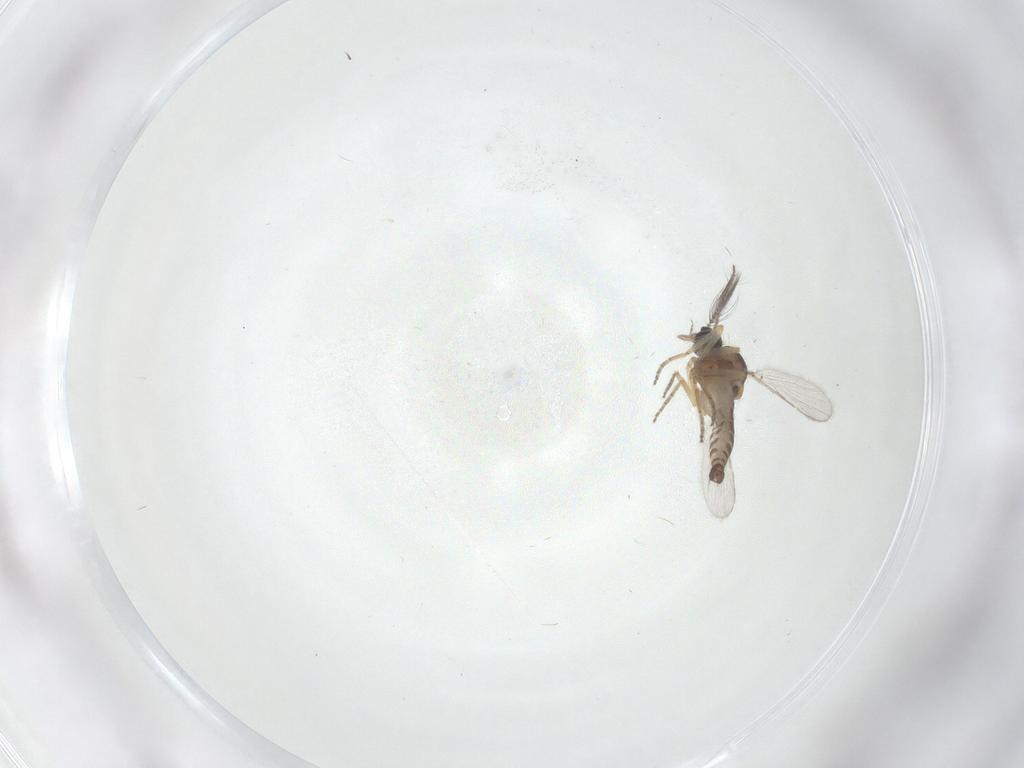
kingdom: Animalia
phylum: Arthropoda
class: Insecta
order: Diptera
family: Ceratopogonidae
